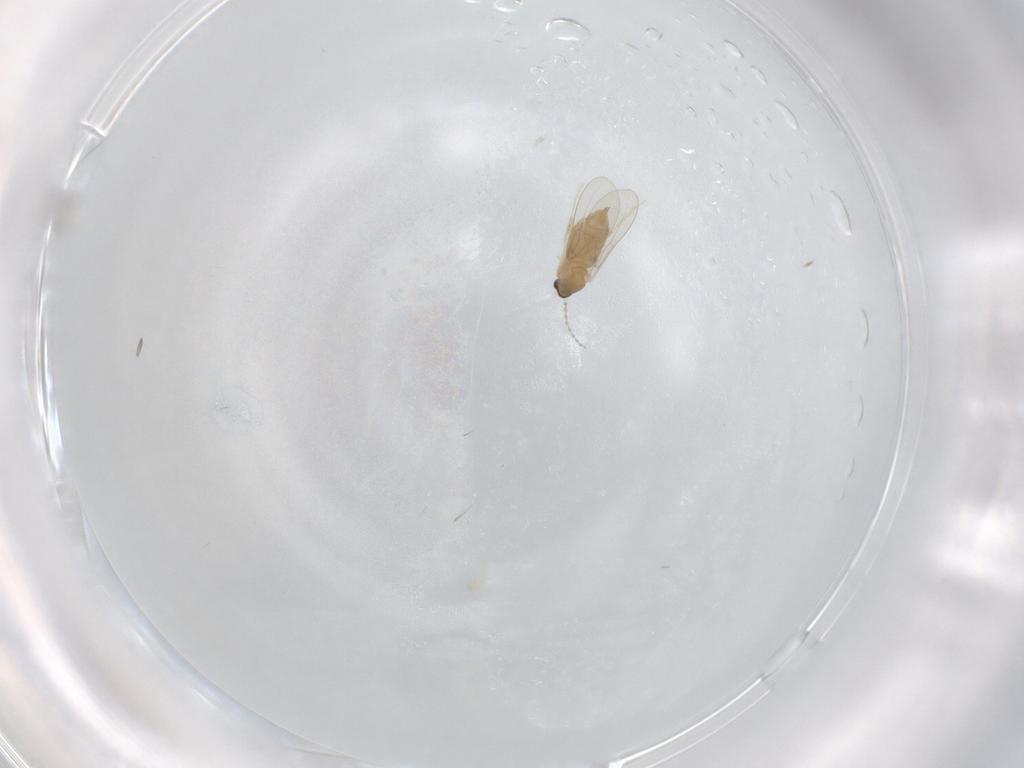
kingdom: Animalia
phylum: Arthropoda
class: Insecta
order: Diptera
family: Cecidomyiidae
